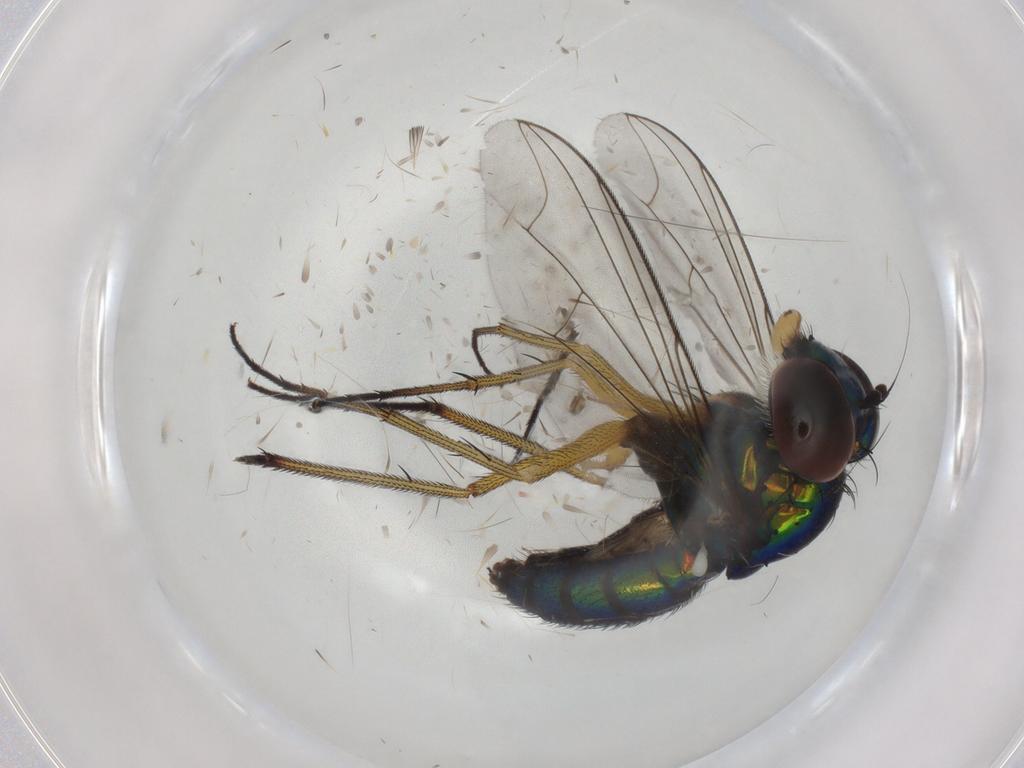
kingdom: Animalia
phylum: Arthropoda
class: Insecta
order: Diptera
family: Dolichopodidae
